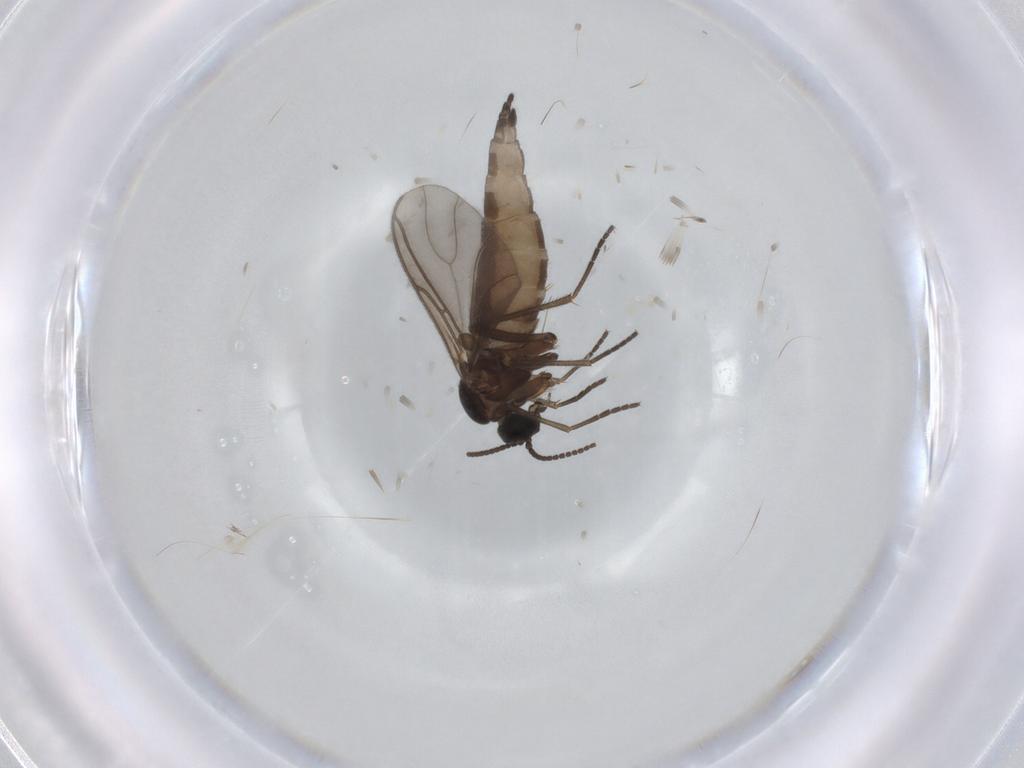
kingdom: Animalia
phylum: Arthropoda
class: Insecta
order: Diptera
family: Sciaridae
